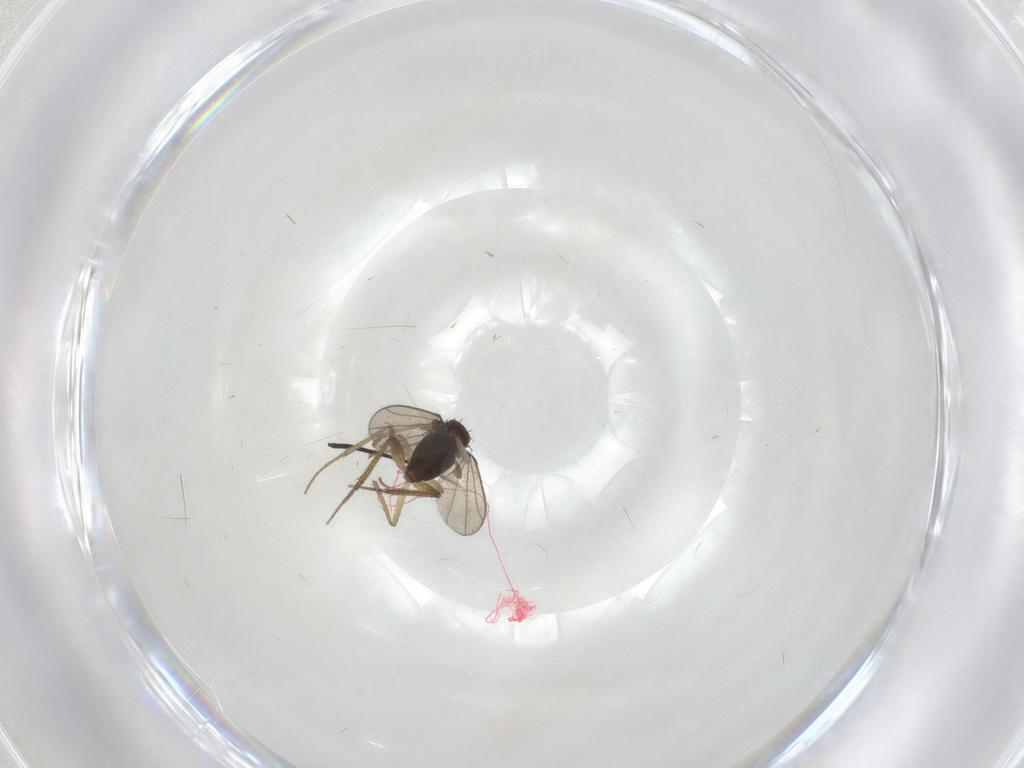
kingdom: Animalia
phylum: Arthropoda
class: Insecta
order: Diptera
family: Dolichopodidae
